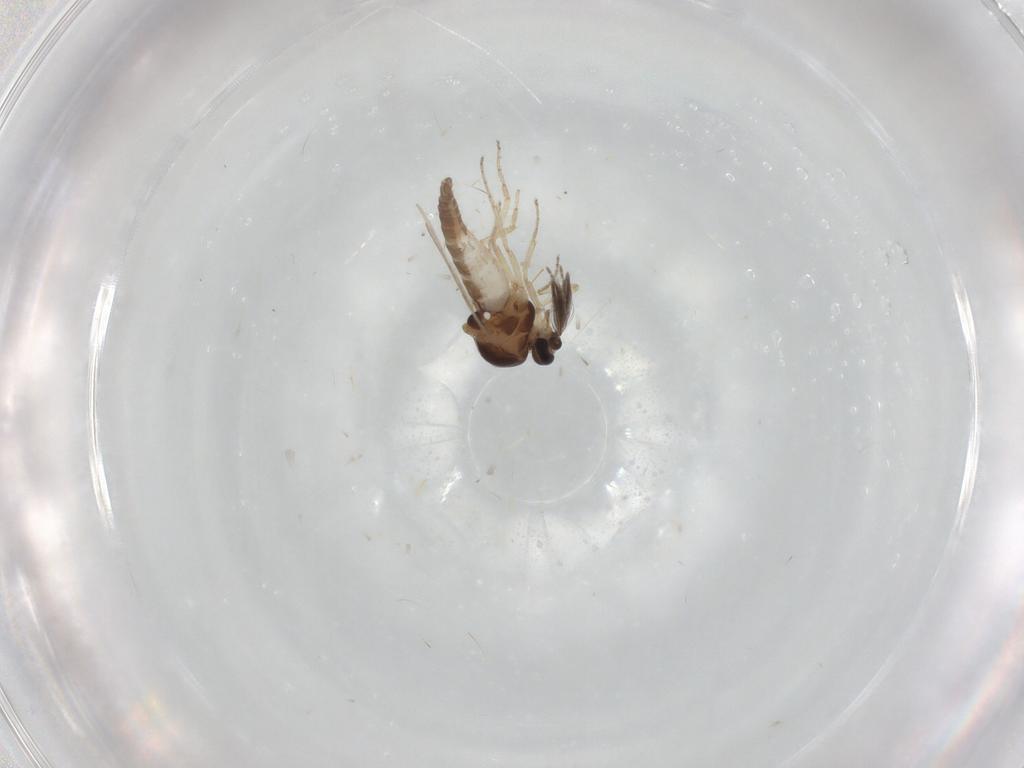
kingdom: Animalia
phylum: Arthropoda
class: Insecta
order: Diptera
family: Ceratopogonidae
